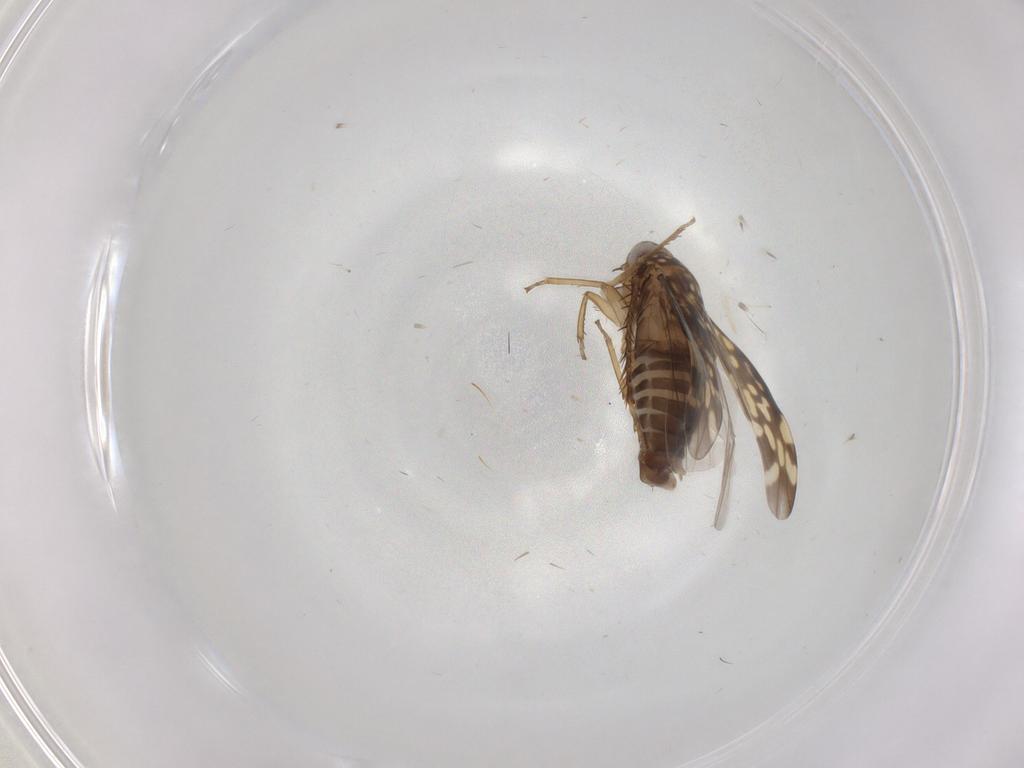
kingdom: Animalia
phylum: Arthropoda
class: Insecta
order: Hemiptera
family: Cicadellidae
